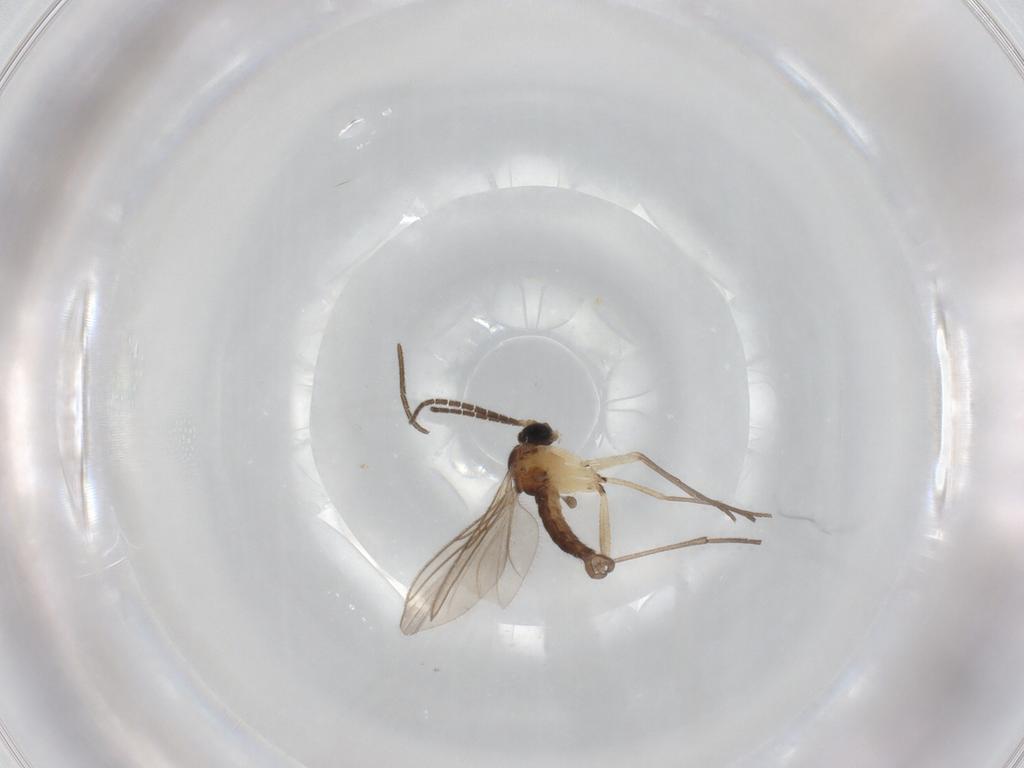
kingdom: Animalia
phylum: Arthropoda
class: Insecta
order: Diptera
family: Sciaridae
